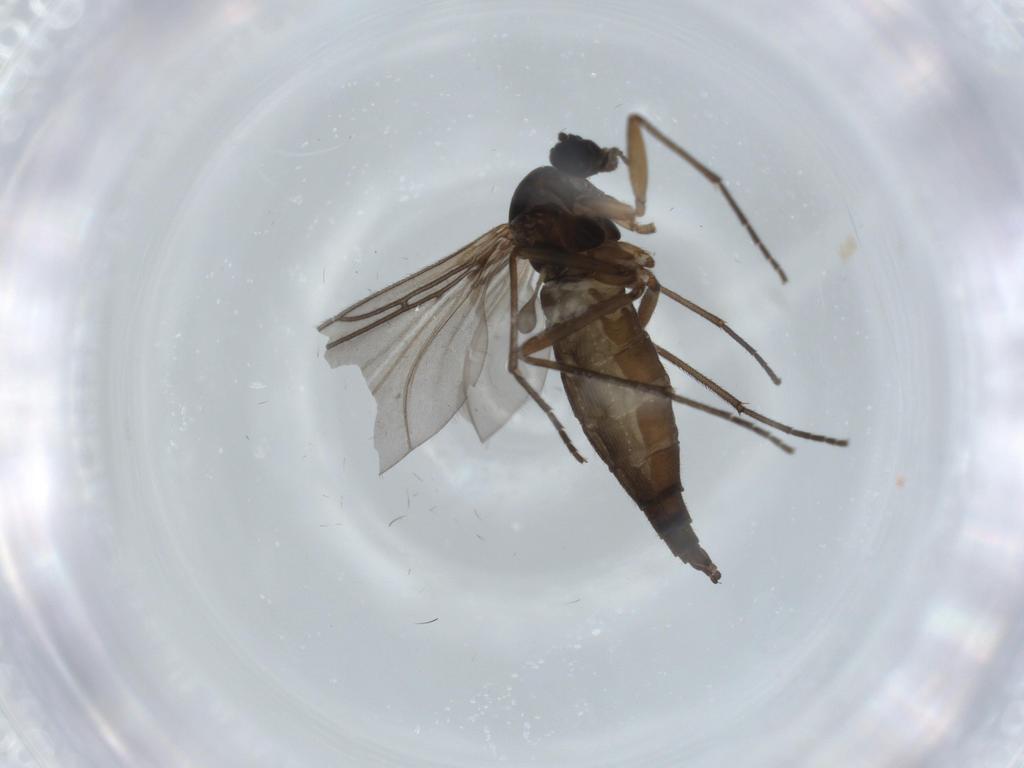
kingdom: Animalia
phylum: Arthropoda
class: Insecta
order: Diptera
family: Sciaridae
